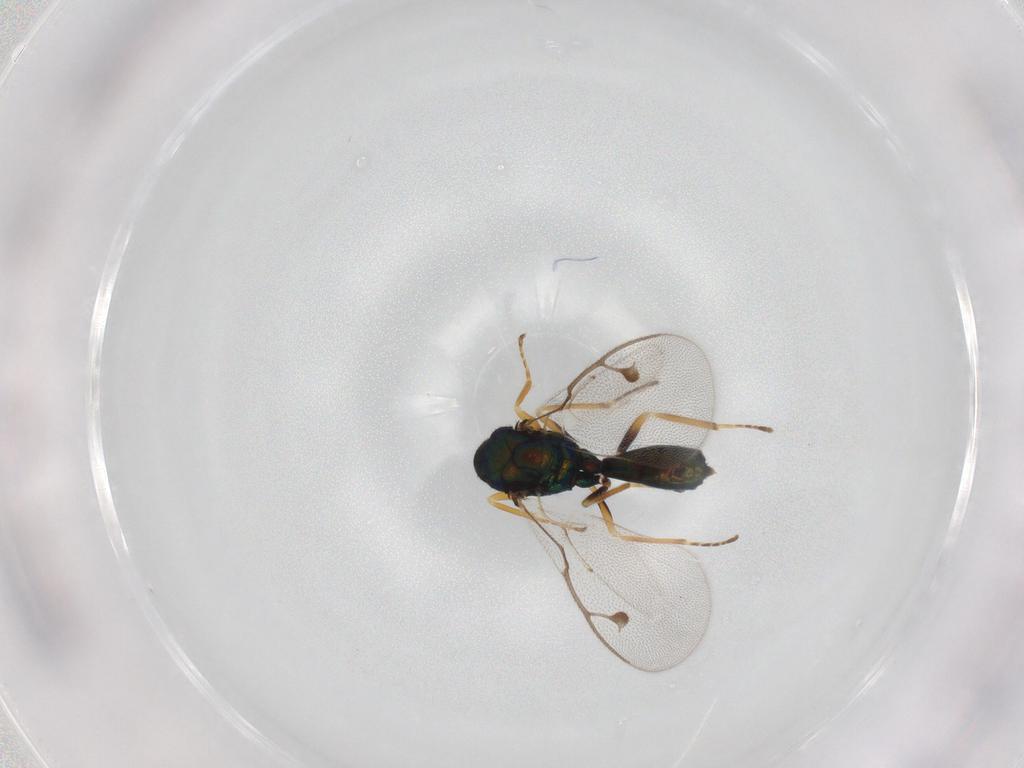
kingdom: Animalia
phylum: Arthropoda
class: Insecta
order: Hymenoptera
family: Pteromalidae
